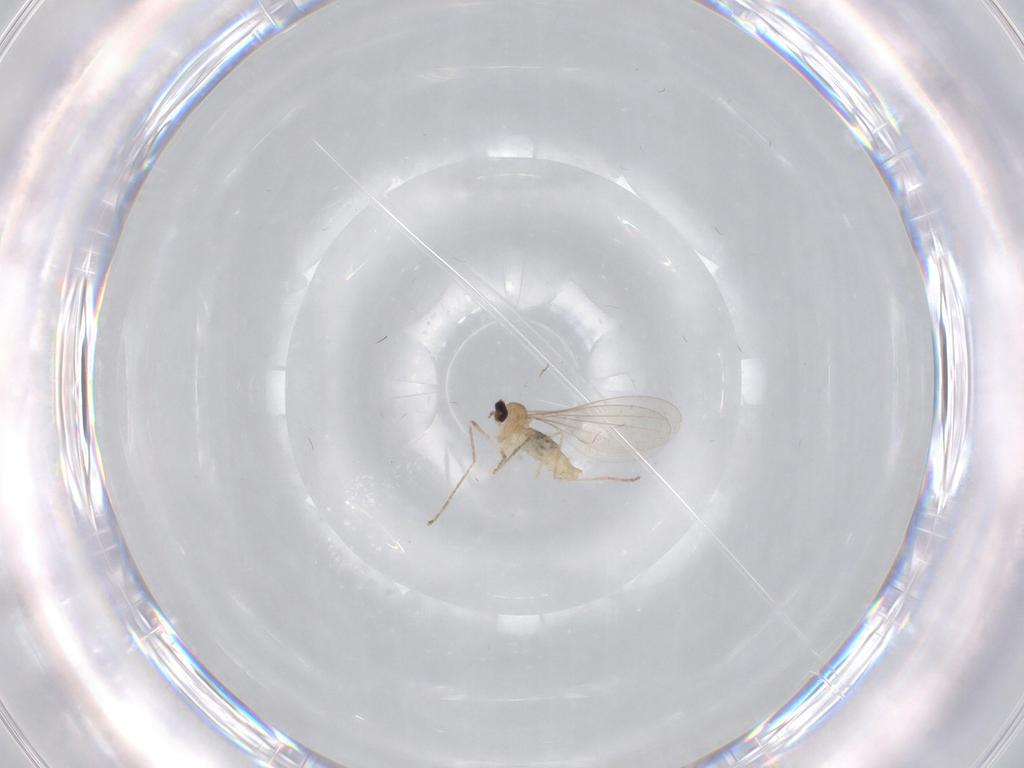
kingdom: Animalia
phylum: Arthropoda
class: Insecta
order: Diptera
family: Cecidomyiidae
